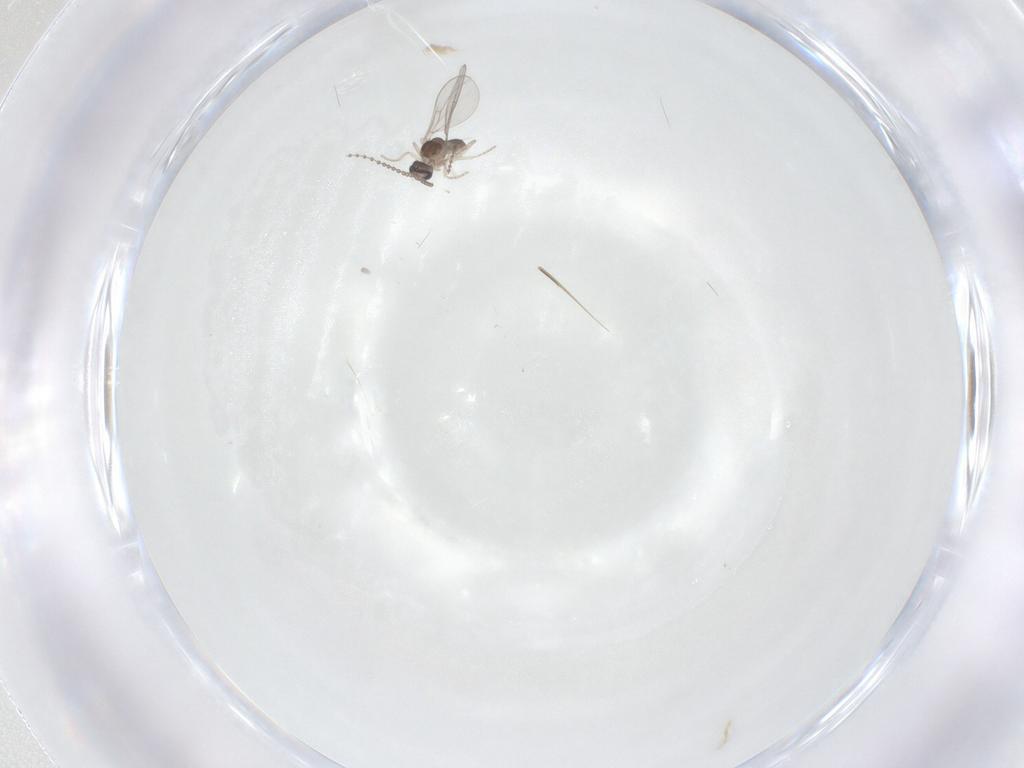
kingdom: Animalia
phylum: Arthropoda
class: Insecta
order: Diptera
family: Cecidomyiidae
